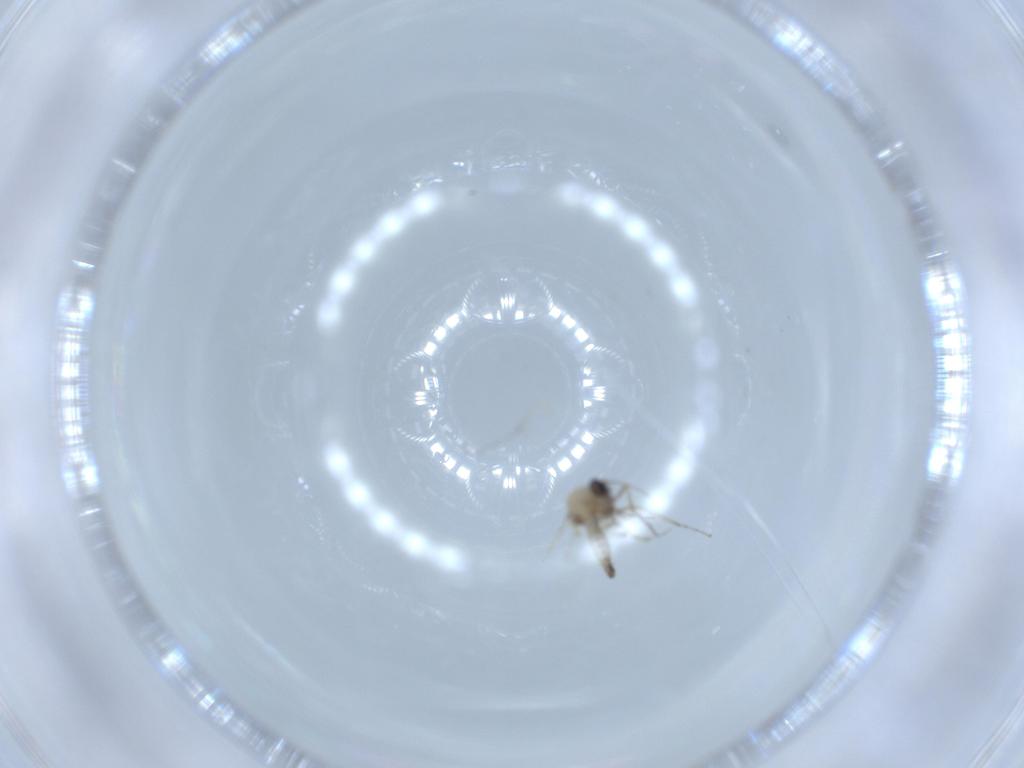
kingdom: Animalia
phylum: Arthropoda
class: Insecta
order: Diptera
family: Ceratopogonidae
